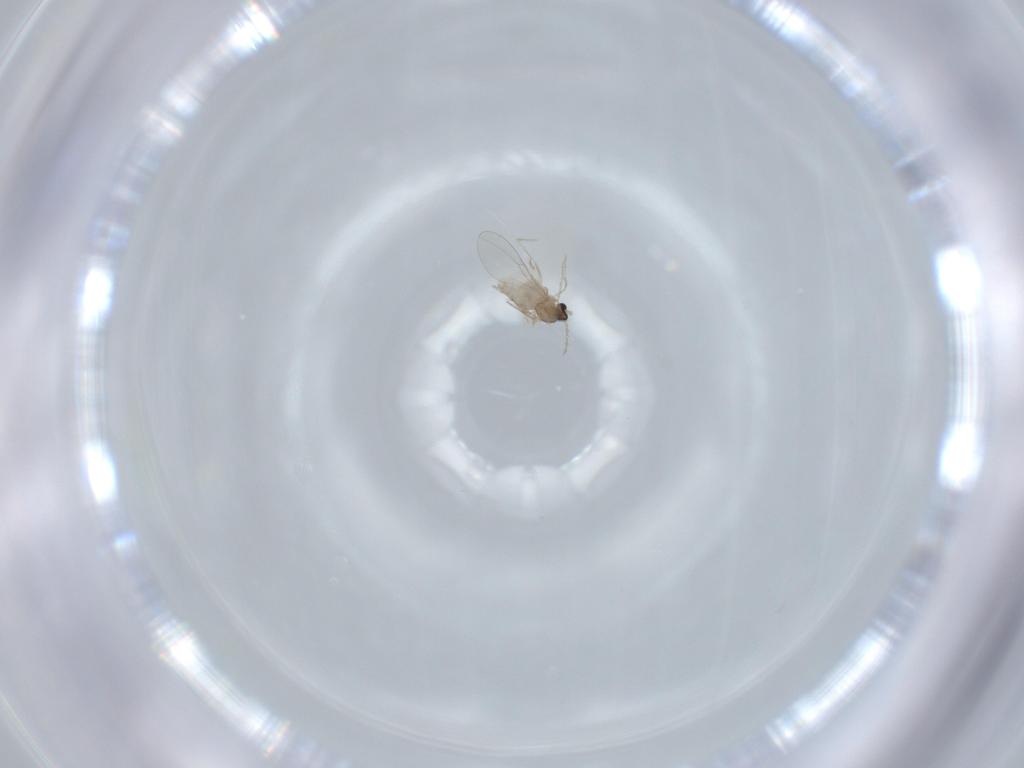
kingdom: Animalia
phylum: Arthropoda
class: Insecta
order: Diptera
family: Cecidomyiidae
